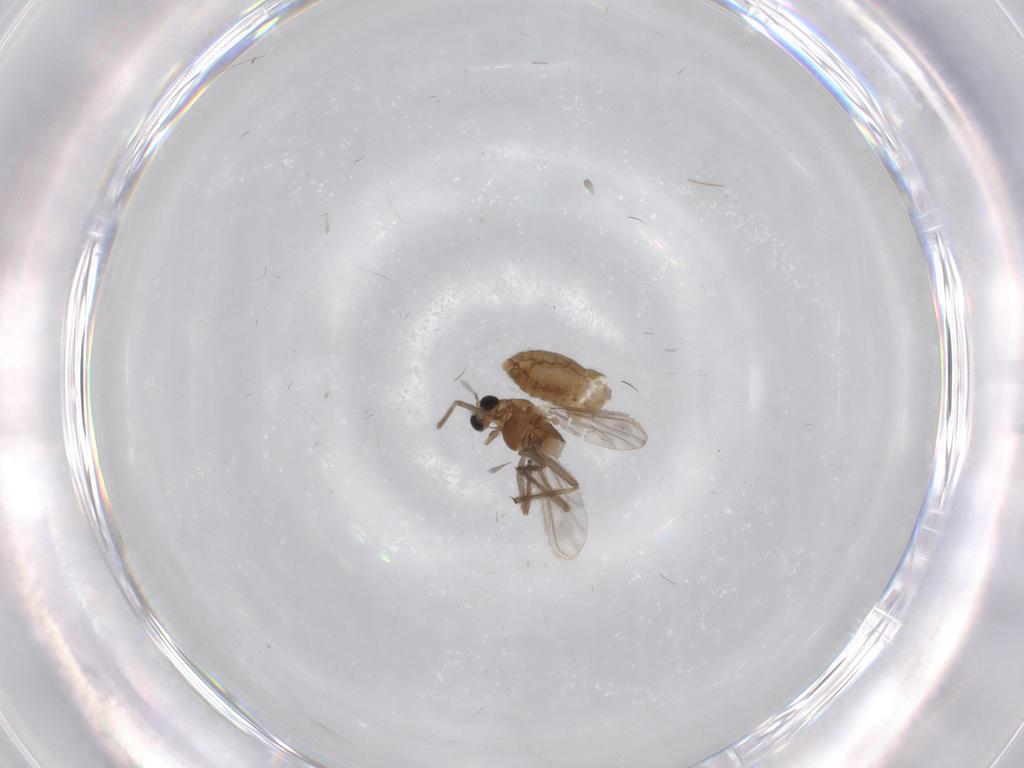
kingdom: Animalia
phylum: Arthropoda
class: Insecta
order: Diptera
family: Chironomidae
